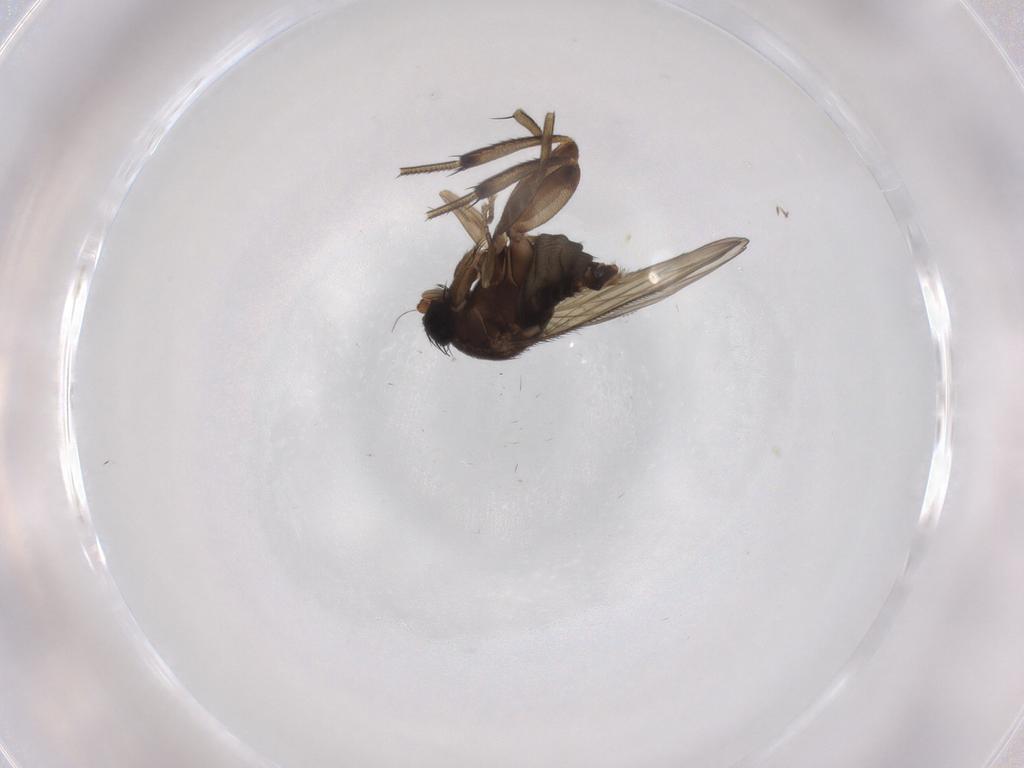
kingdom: Animalia
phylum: Arthropoda
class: Insecta
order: Diptera
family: Phoridae
